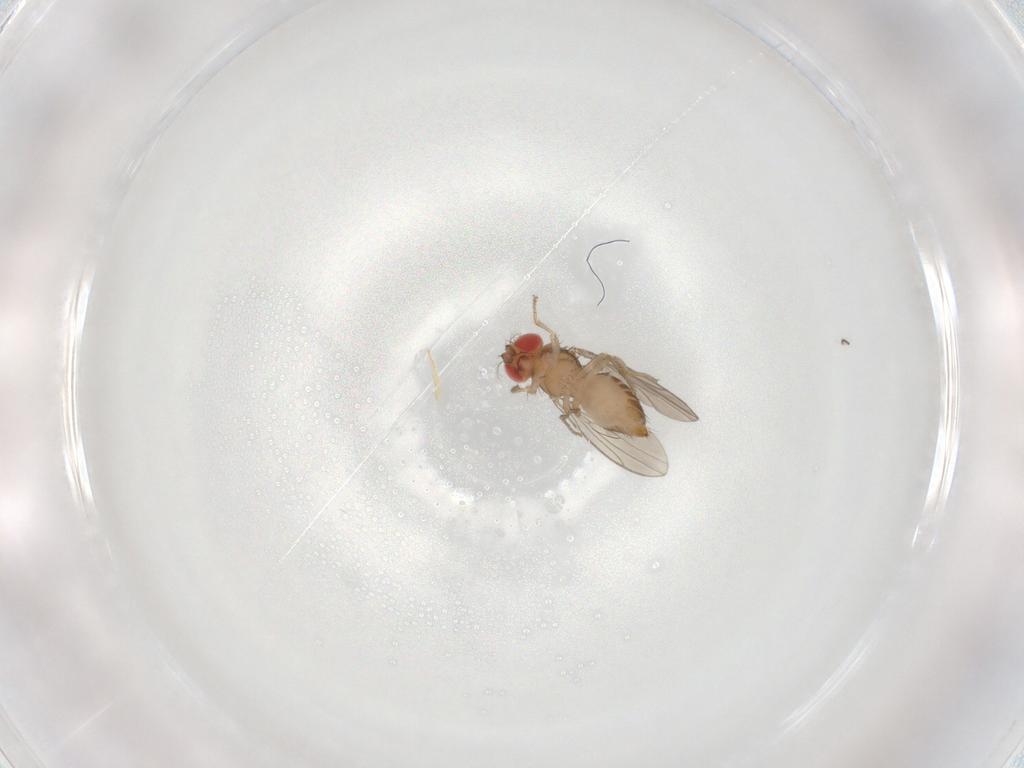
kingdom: Animalia
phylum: Arthropoda
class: Insecta
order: Diptera
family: Drosophilidae
